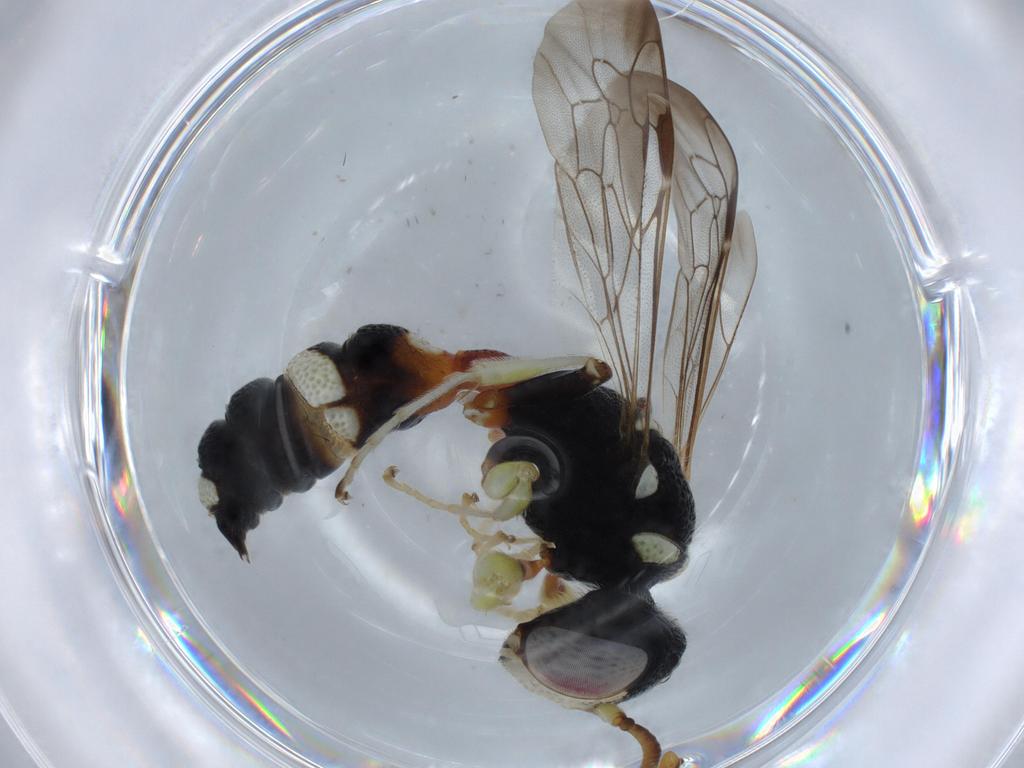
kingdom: Animalia
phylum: Arthropoda
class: Insecta
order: Hymenoptera
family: Crabronidae
